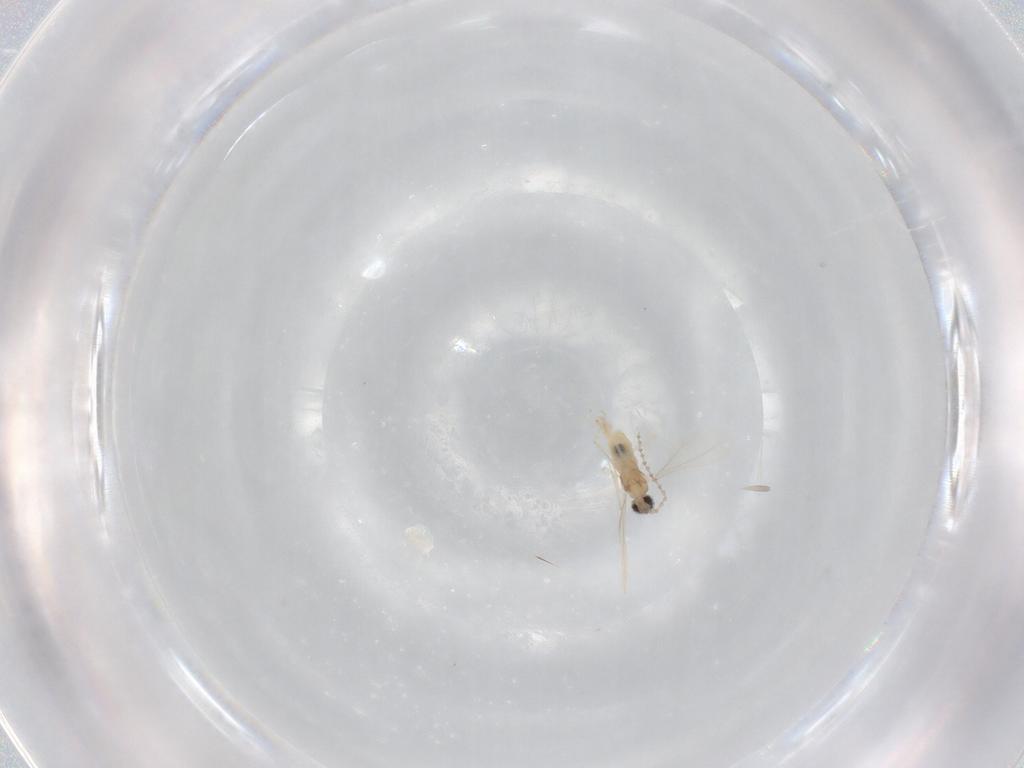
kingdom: Animalia
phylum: Arthropoda
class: Insecta
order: Diptera
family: Cecidomyiidae
